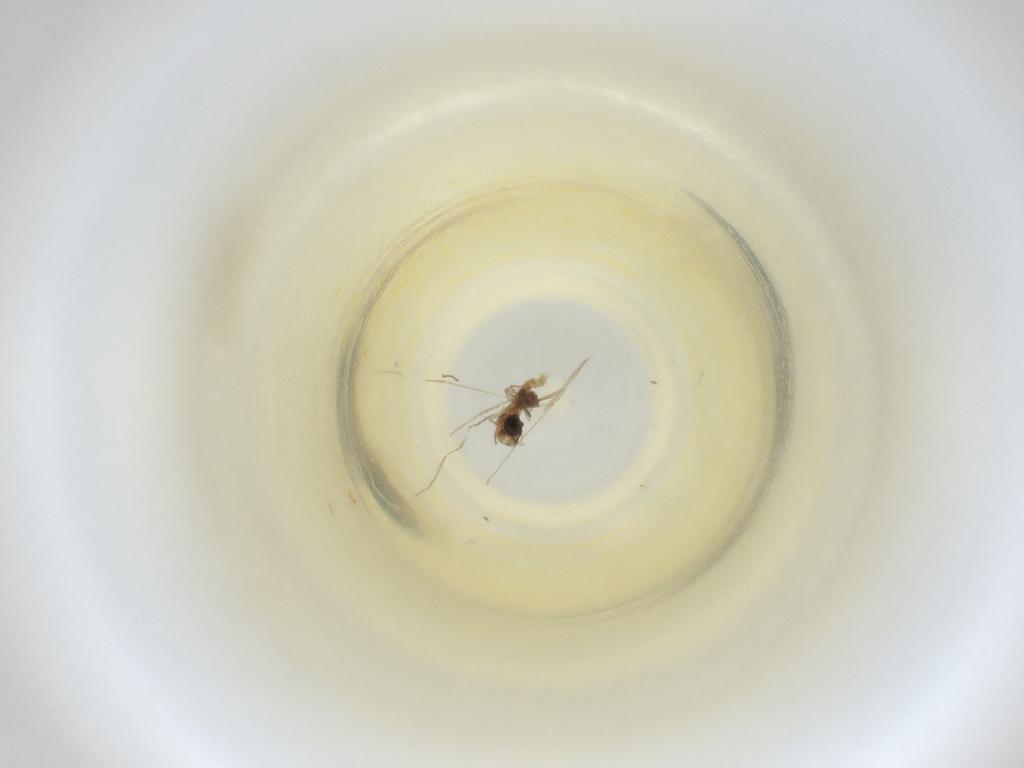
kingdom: Animalia
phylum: Arthropoda
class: Insecta
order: Diptera
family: Cecidomyiidae
